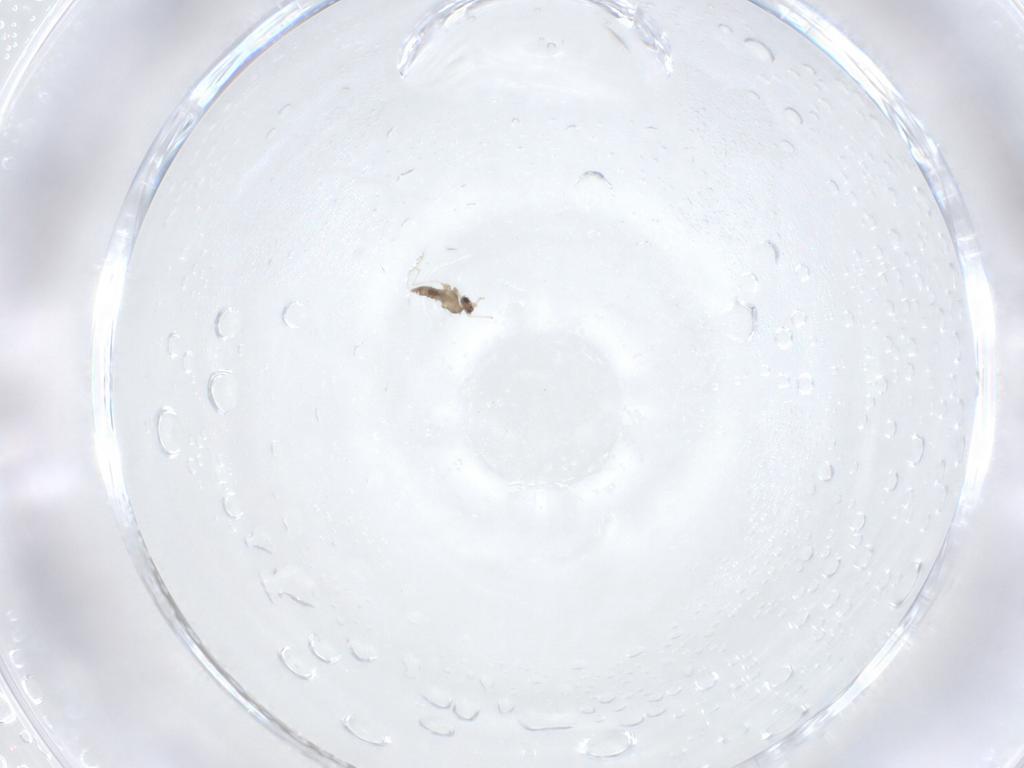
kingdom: Animalia
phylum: Arthropoda
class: Insecta
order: Diptera
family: Cecidomyiidae
